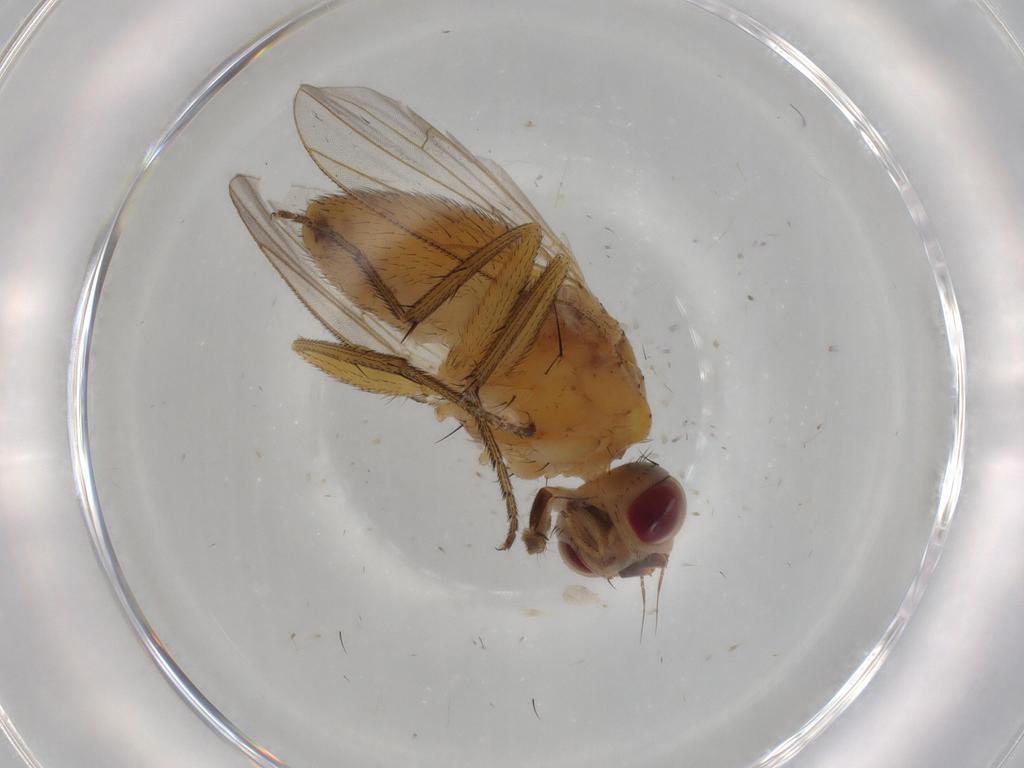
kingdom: Animalia
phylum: Arthropoda
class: Insecta
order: Diptera
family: Muscidae
